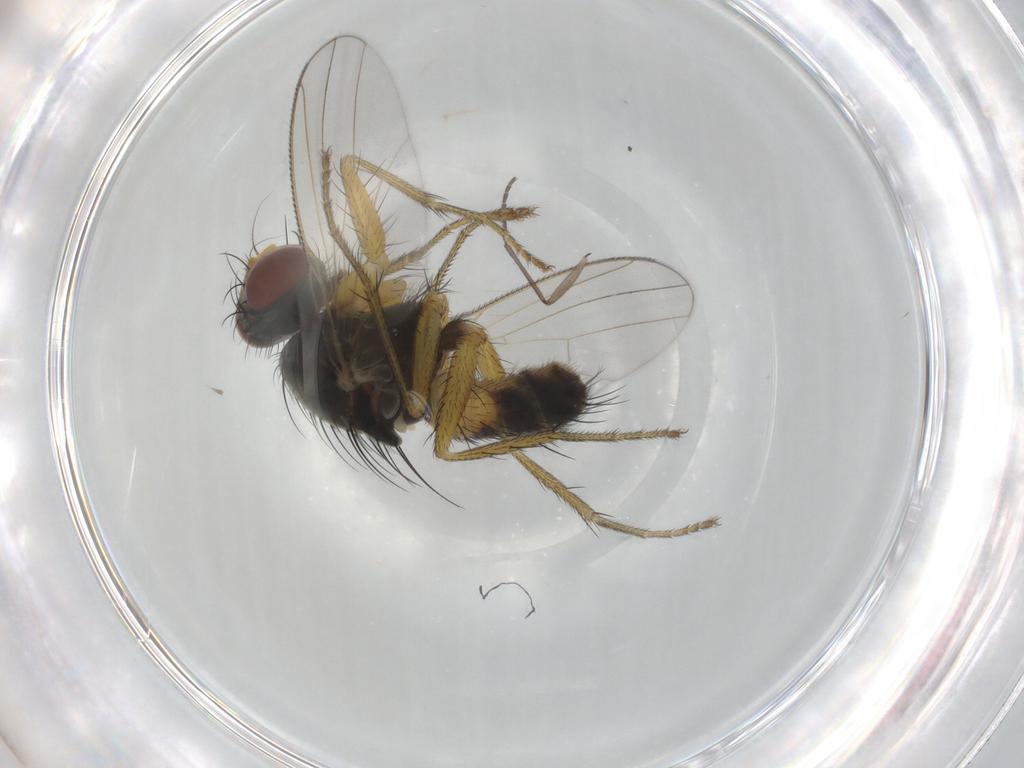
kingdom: Animalia
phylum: Arthropoda
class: Insecta
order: Diptera
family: Muscidae
